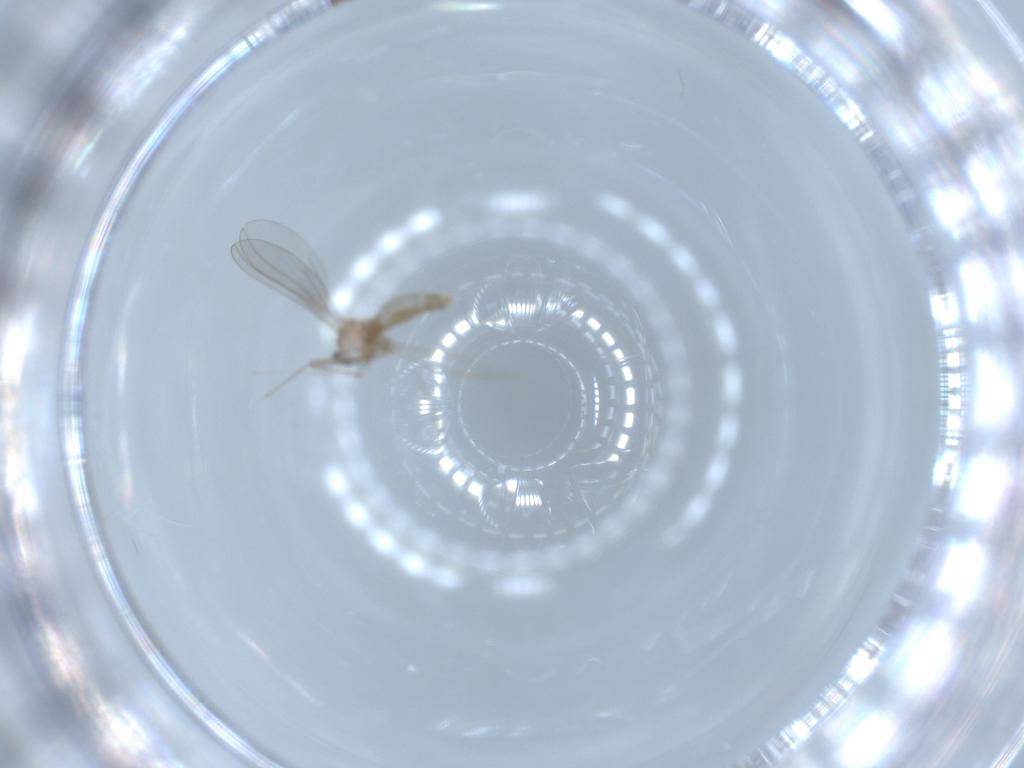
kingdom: Animalia
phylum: Arthropoda
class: Insecta
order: Diptera
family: Cecidomyiidae
